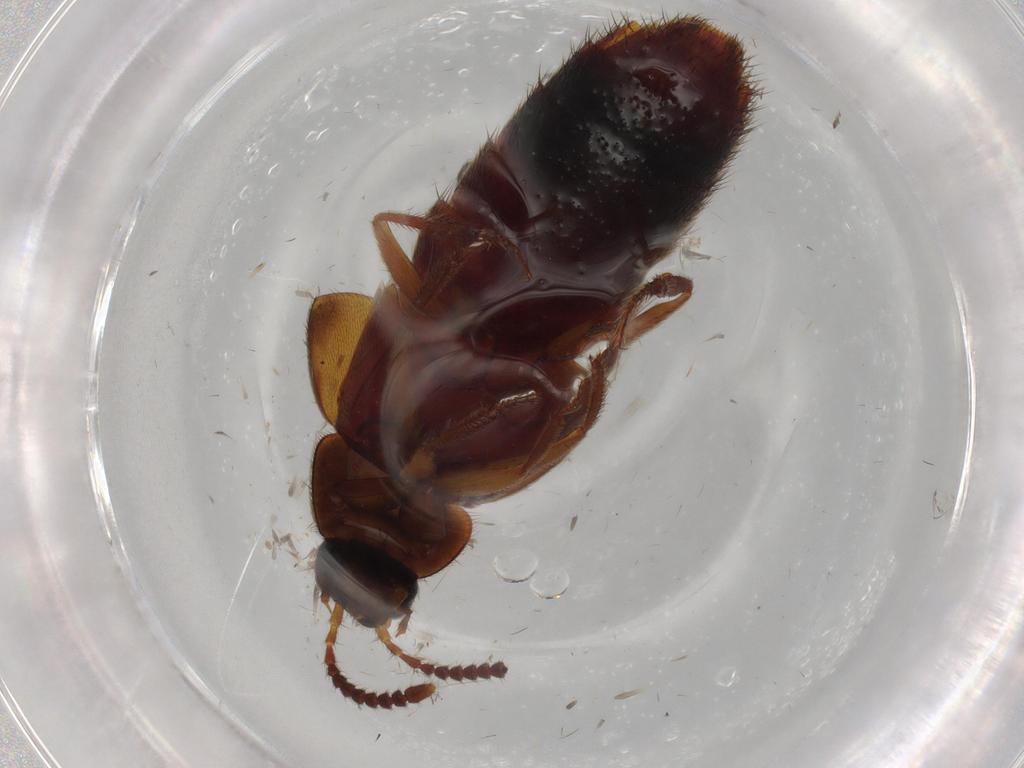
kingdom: Animalia
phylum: Arthropoda
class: Insecta
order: Coleoptera
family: Staphylinidae
